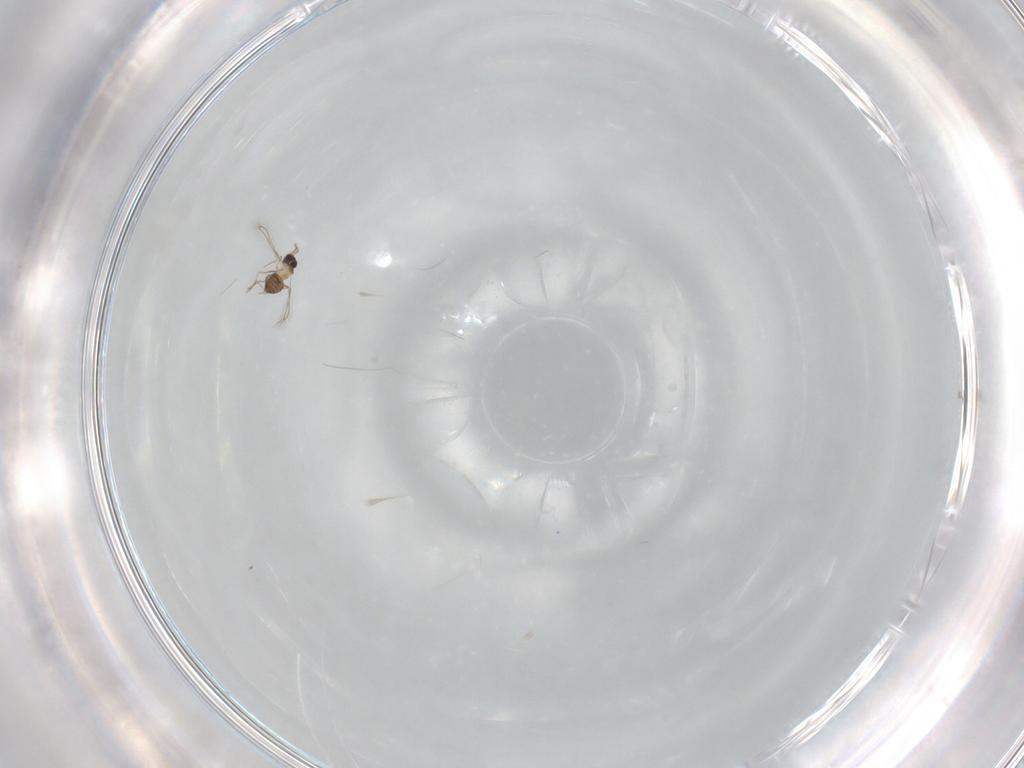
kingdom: Animalia
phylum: Arthropoda
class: Insecta
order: Hymenoptera
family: Mymaridae
